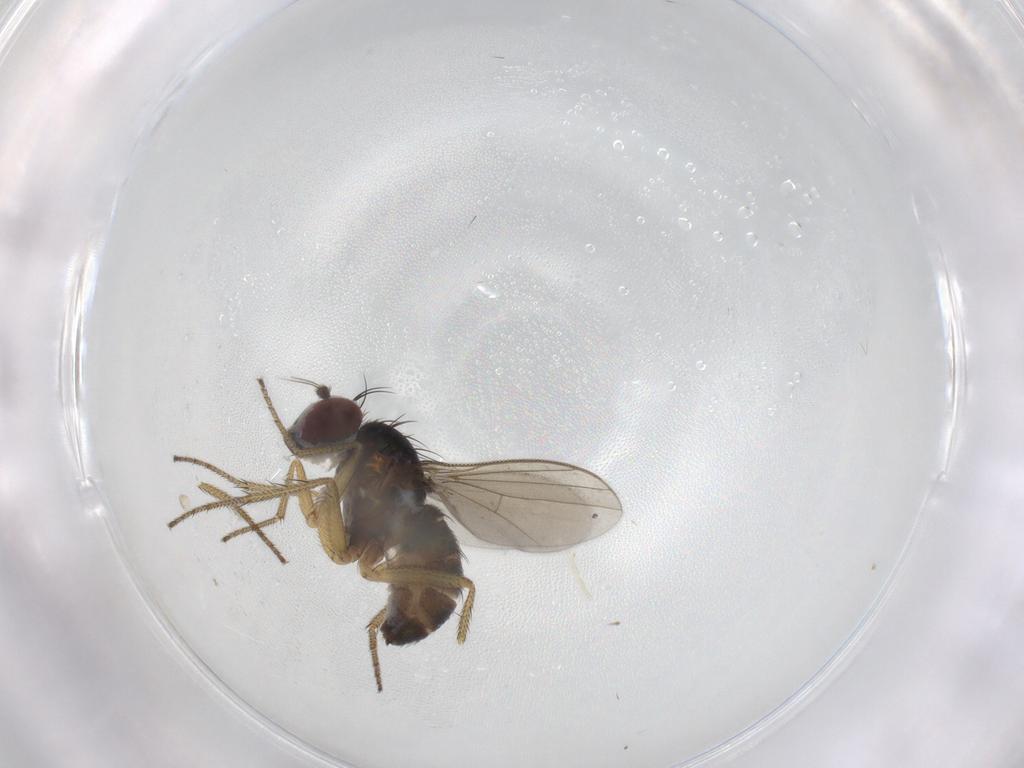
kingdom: Animalia
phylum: Arthropoda
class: Insecta
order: Diptera
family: Dolichopodidae
